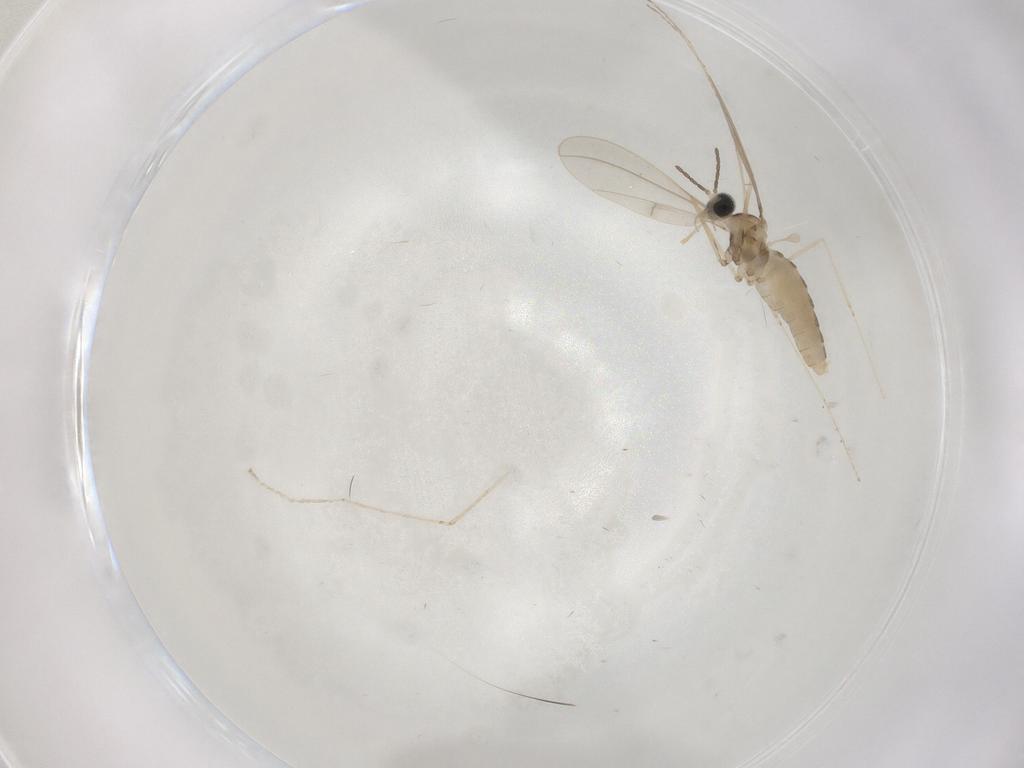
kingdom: Animalia
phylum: Arthropoda
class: Insecta
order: Diptera
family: Cecidomyiidae
